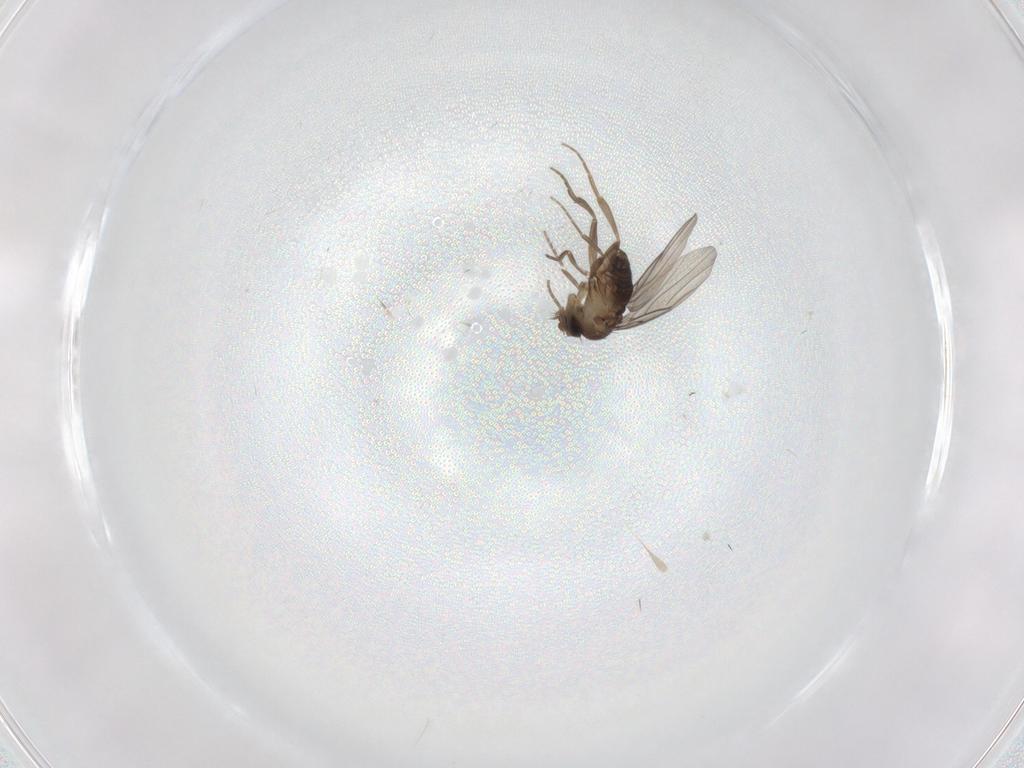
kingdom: Animalia
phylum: Arthropoda
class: Insecta
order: Diptera
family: Phoridae
